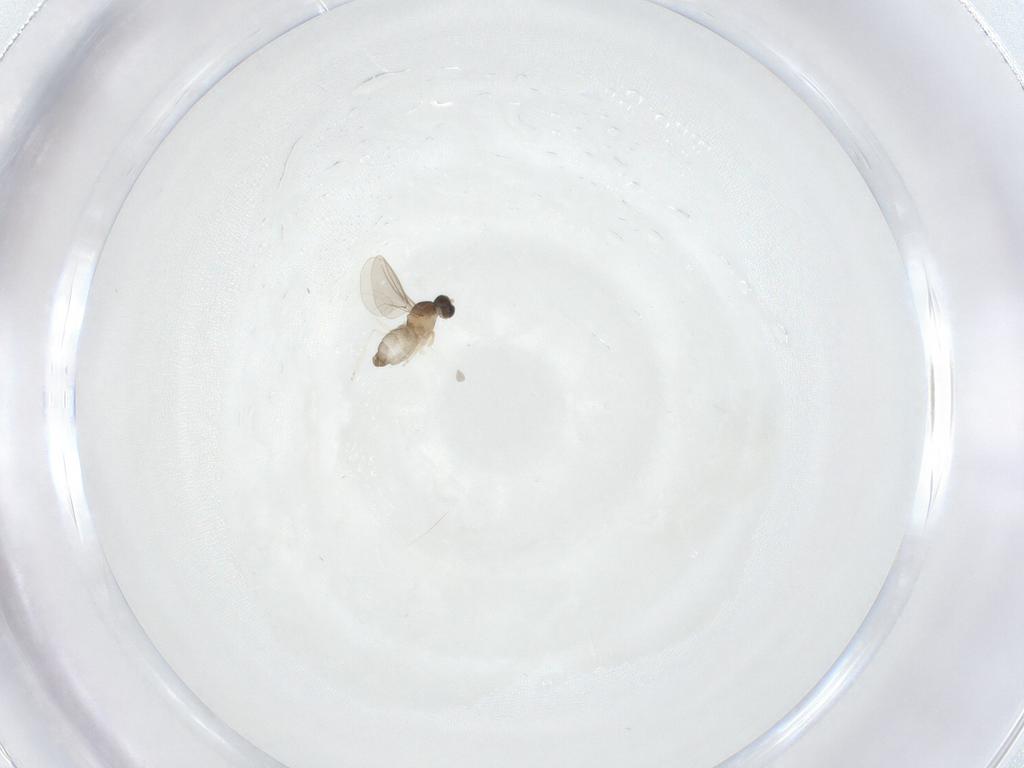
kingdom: Animalia
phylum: Arthropoda
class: Insecta
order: Diptera
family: Cecidomyiidae
